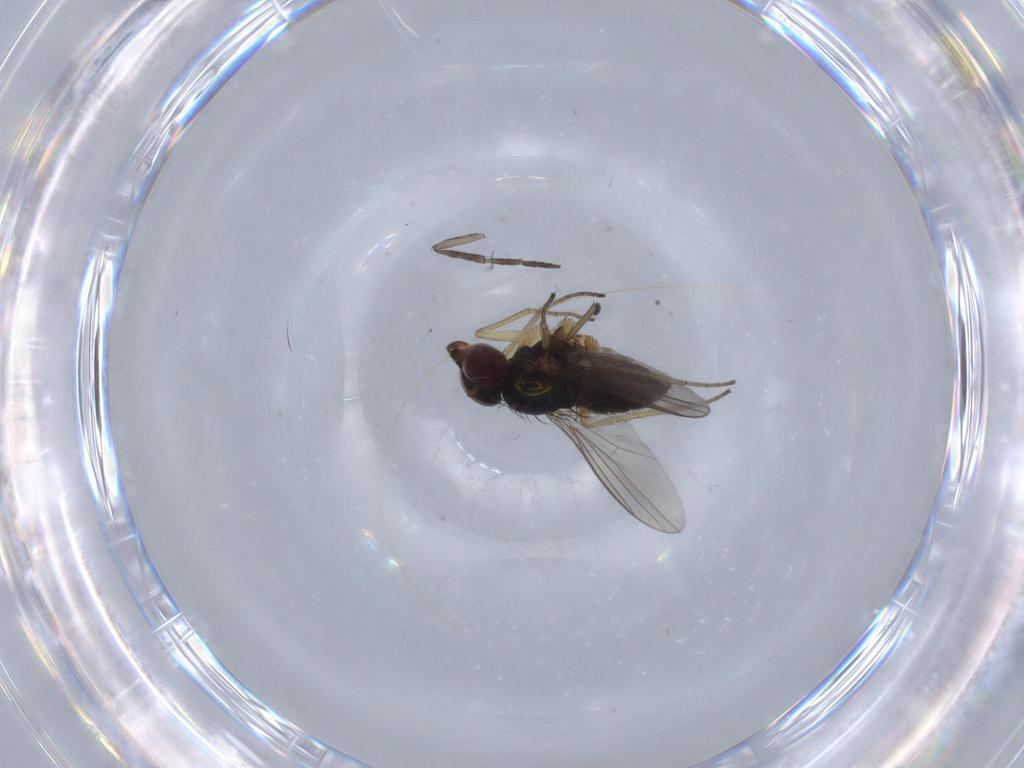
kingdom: Animalia
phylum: Arthropoda
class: Insecta
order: Diptera
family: Dolichopodidae
